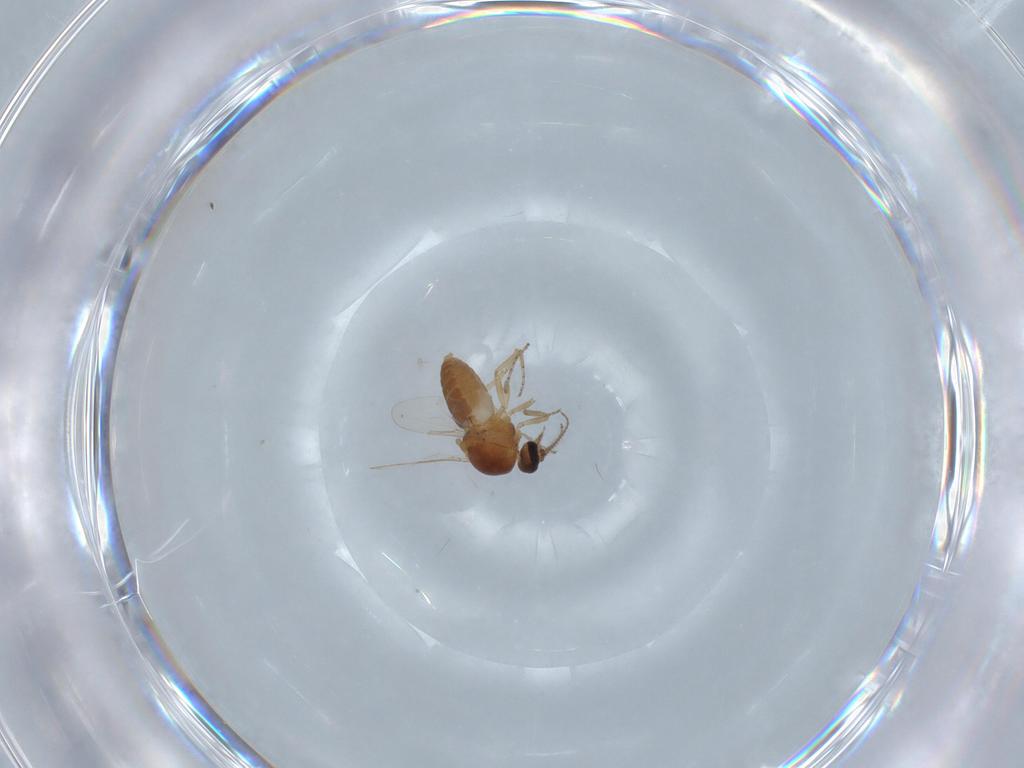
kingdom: Animalia
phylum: Arthropoda
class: Insecta
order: Diptera
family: Ceratopogonidae
